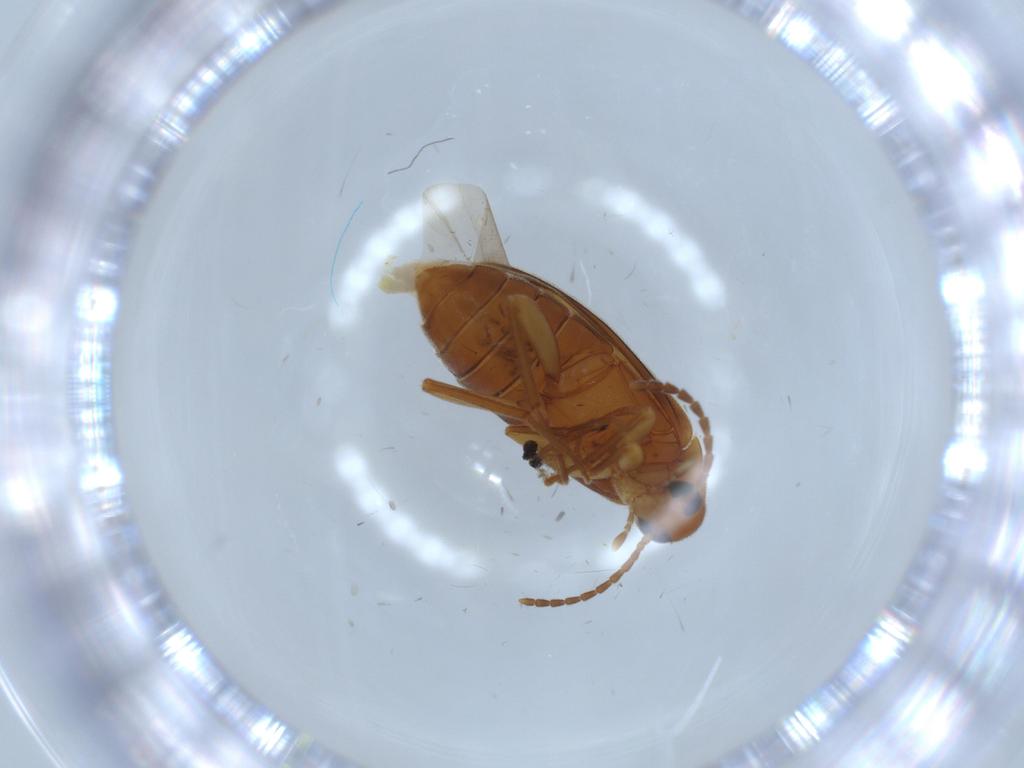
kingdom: Animalia
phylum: Arthropoda
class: Insecta
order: Coleoptera
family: Scraptiidae
